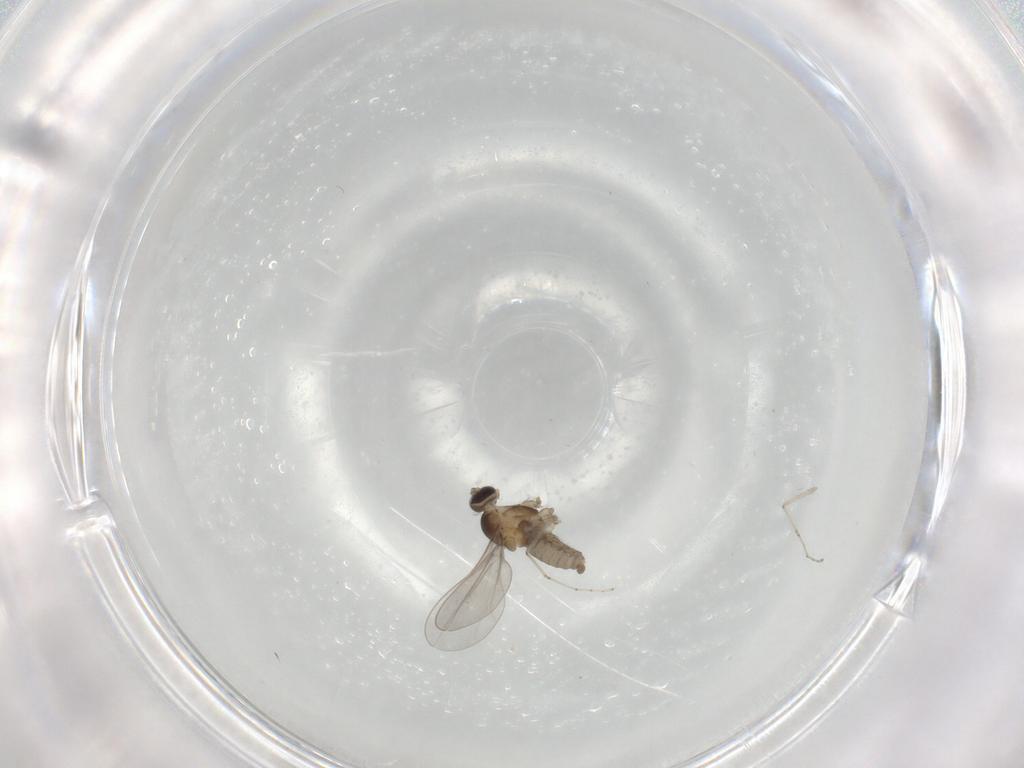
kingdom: Animalia
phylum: Arthropoda
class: Insecta
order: Diptera
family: Cecidomyiidae
